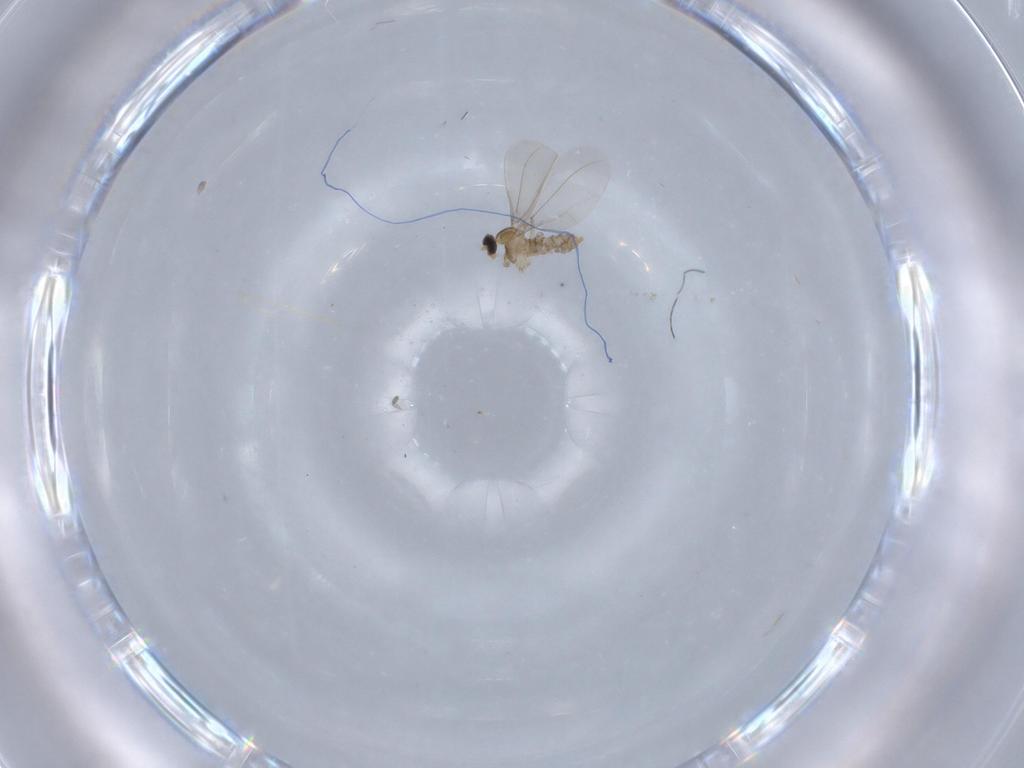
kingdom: Animalia
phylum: Arthropoda
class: Insecta
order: Diptera
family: Cecidomyiidae
